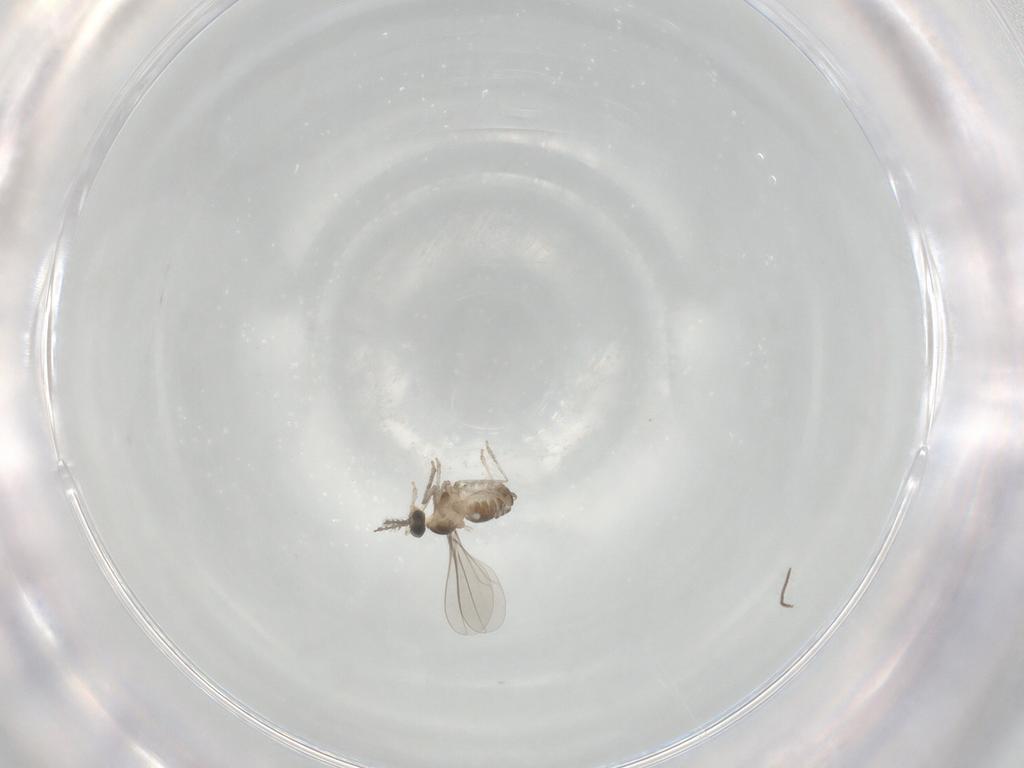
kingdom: Animalia
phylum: Arthropoda
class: Insecta
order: Diptera
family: Cecidomyiidae
